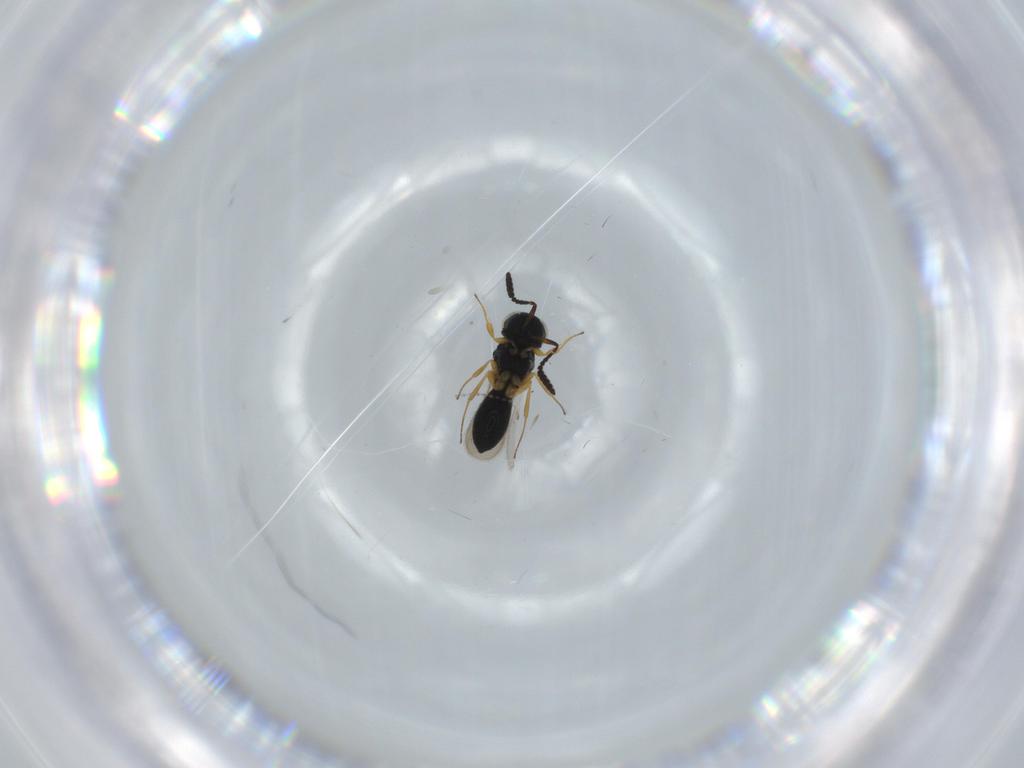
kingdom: Animalia
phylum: Arthropoda
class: Insecta
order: Hymenoptera
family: Scelionidae
